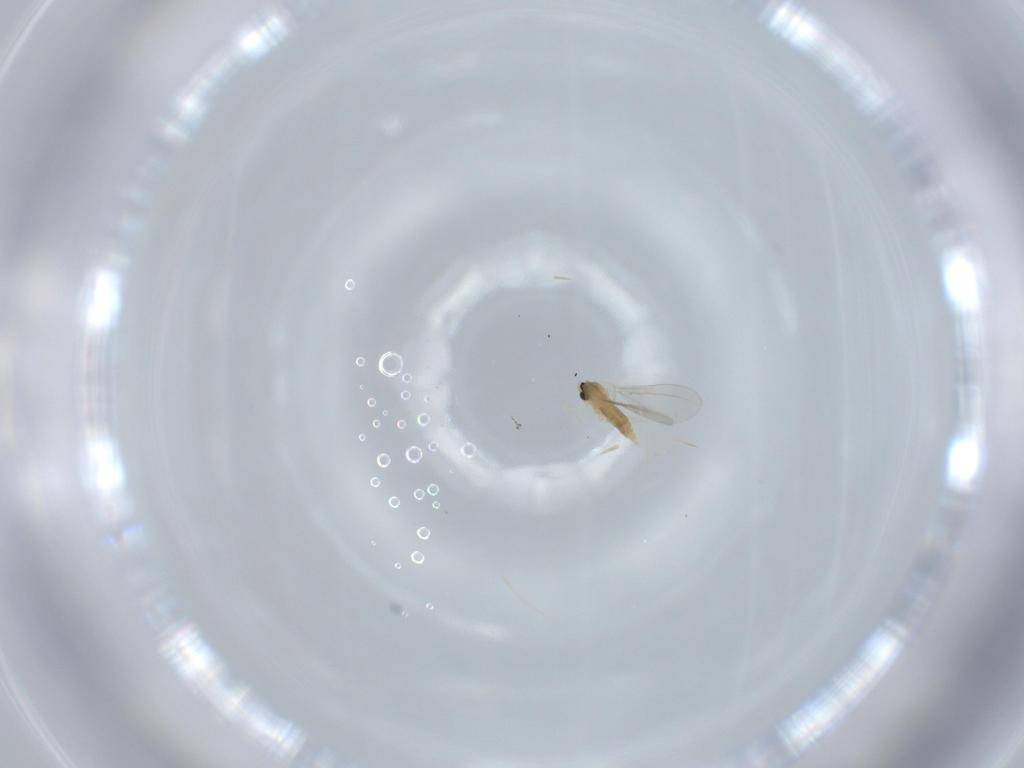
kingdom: Animalia
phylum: Arthropoda
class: Insecta
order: Diptera
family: Cecidomyiidae
